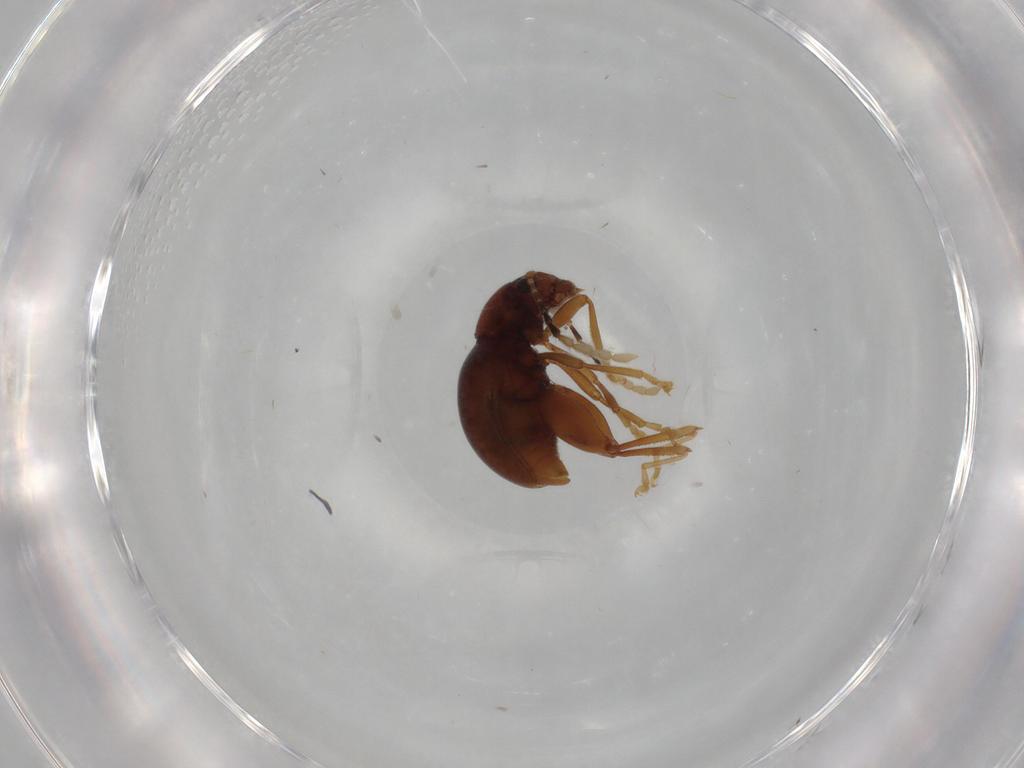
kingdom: Animalia
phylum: Arthropoda
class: Insecta
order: Coleoptera
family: Chrysomelidae
